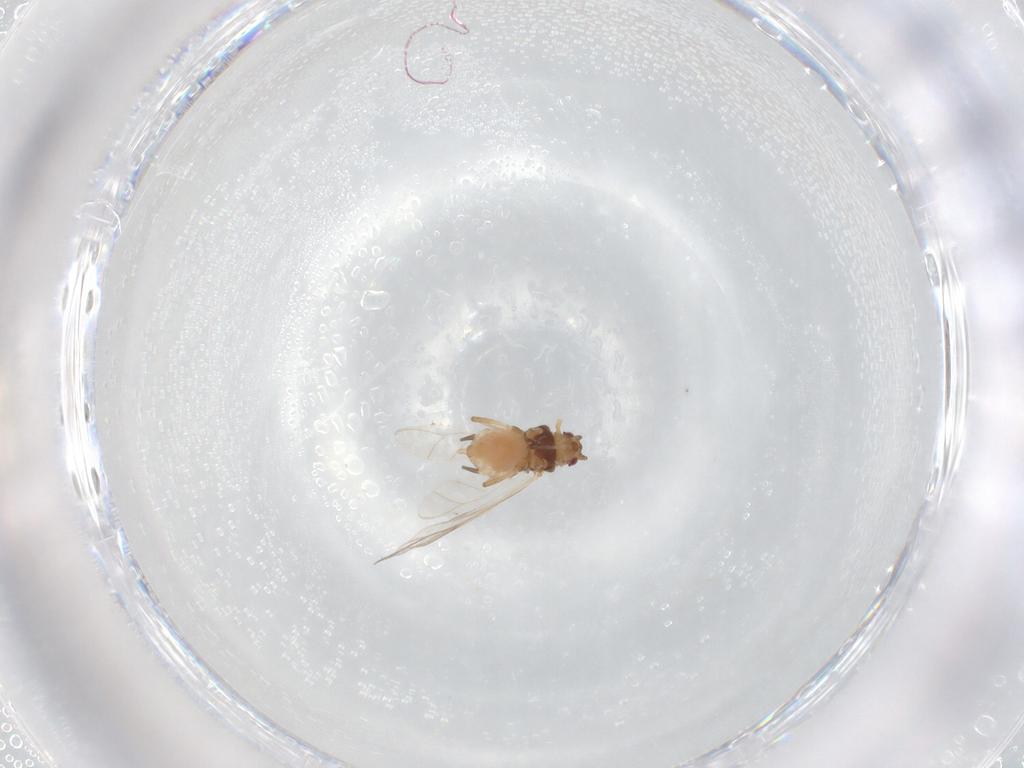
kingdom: Animalia
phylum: Arthropoda
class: Insecta
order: Hemiptera
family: Aphididae
